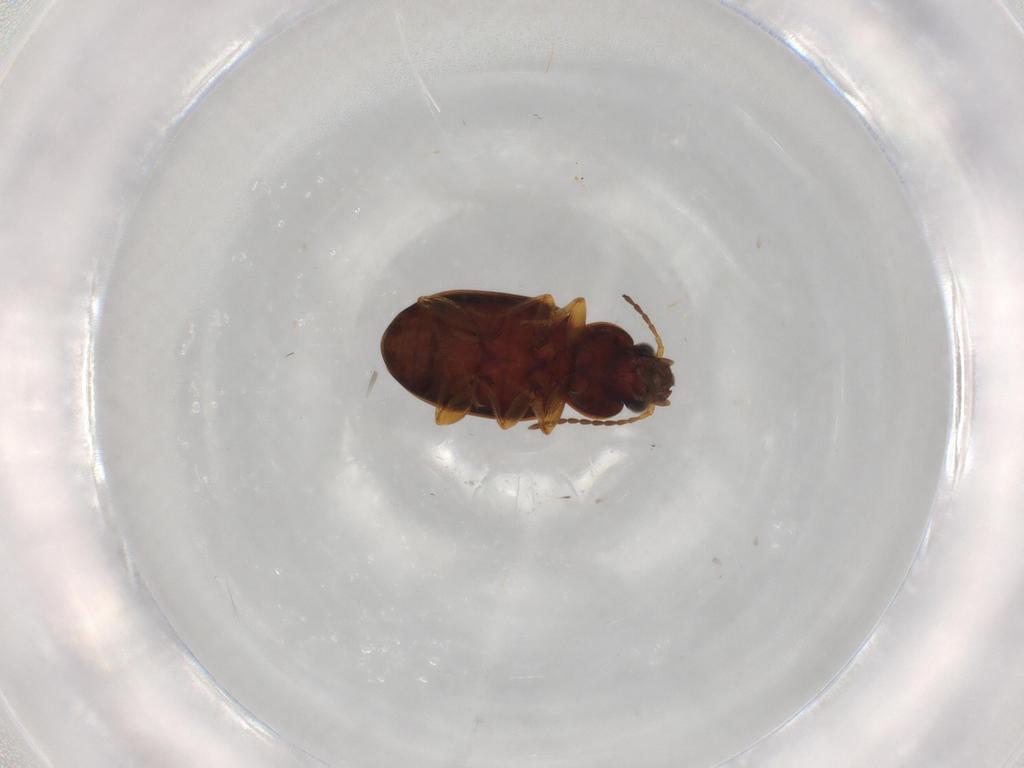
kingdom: Animalia
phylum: Arthropoda
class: Insecta
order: Coleoptera
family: Carabidae
